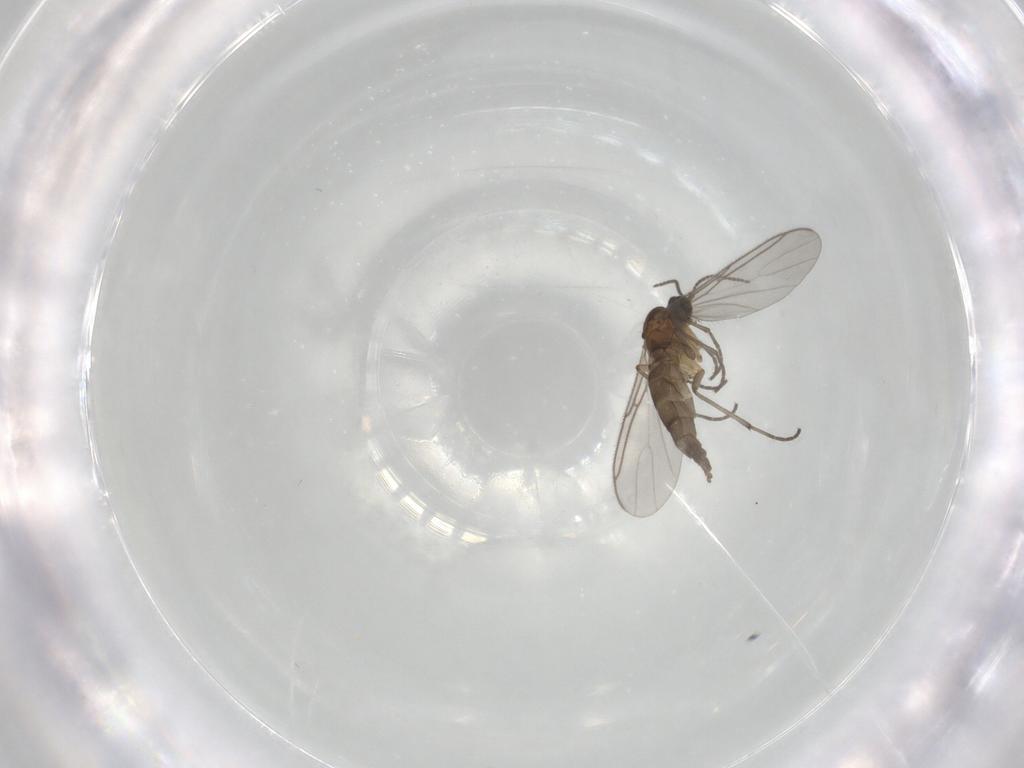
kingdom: Animalia
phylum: Arthropoda
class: Insecta
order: Diptera
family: Sciaridae
